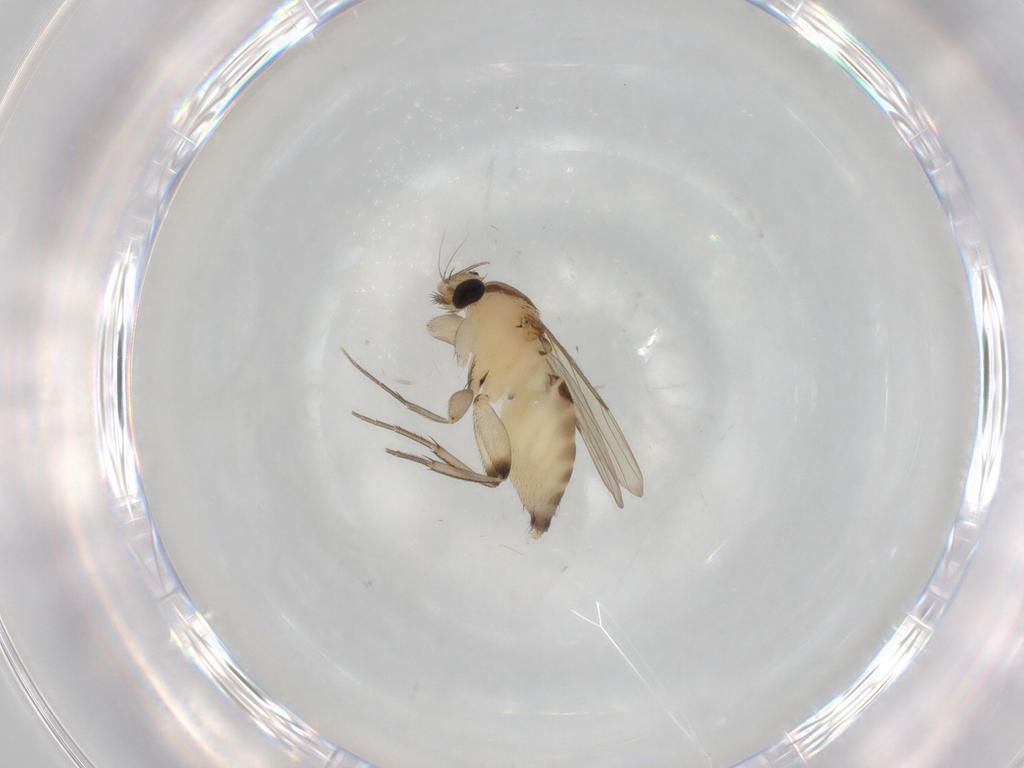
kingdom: Animalia
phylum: Arthropoda
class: Insecta
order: Diptera
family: Phoridae
